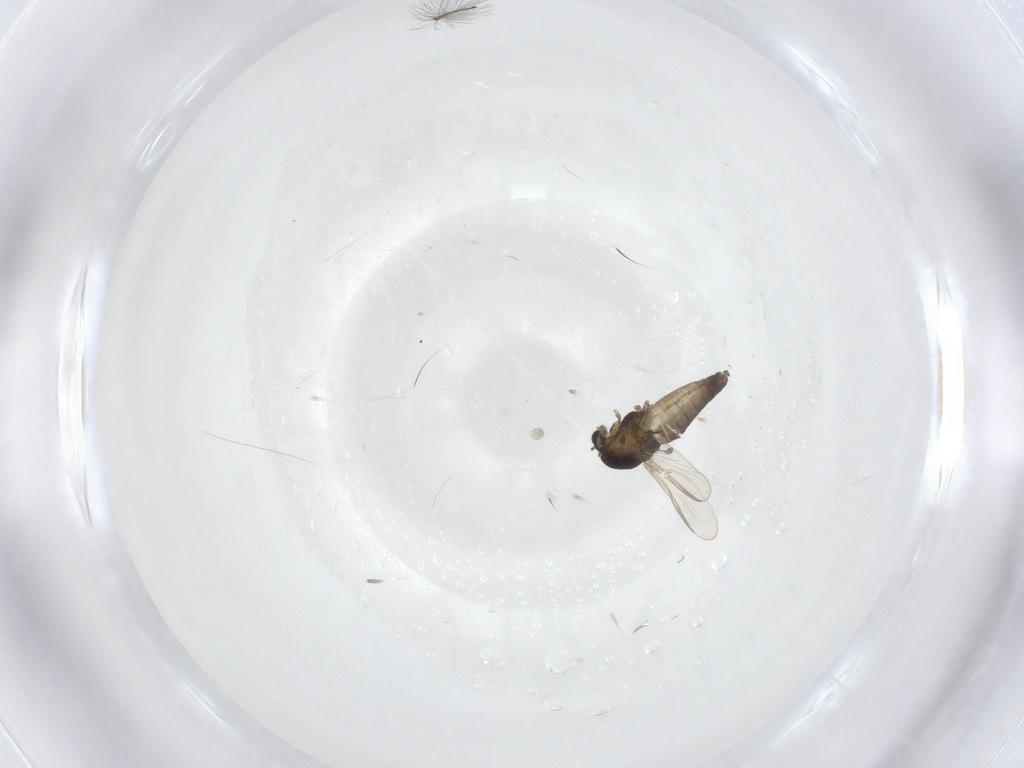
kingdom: Animalia
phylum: Arthropoda
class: Insecta
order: Diptera
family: Chironomidae
